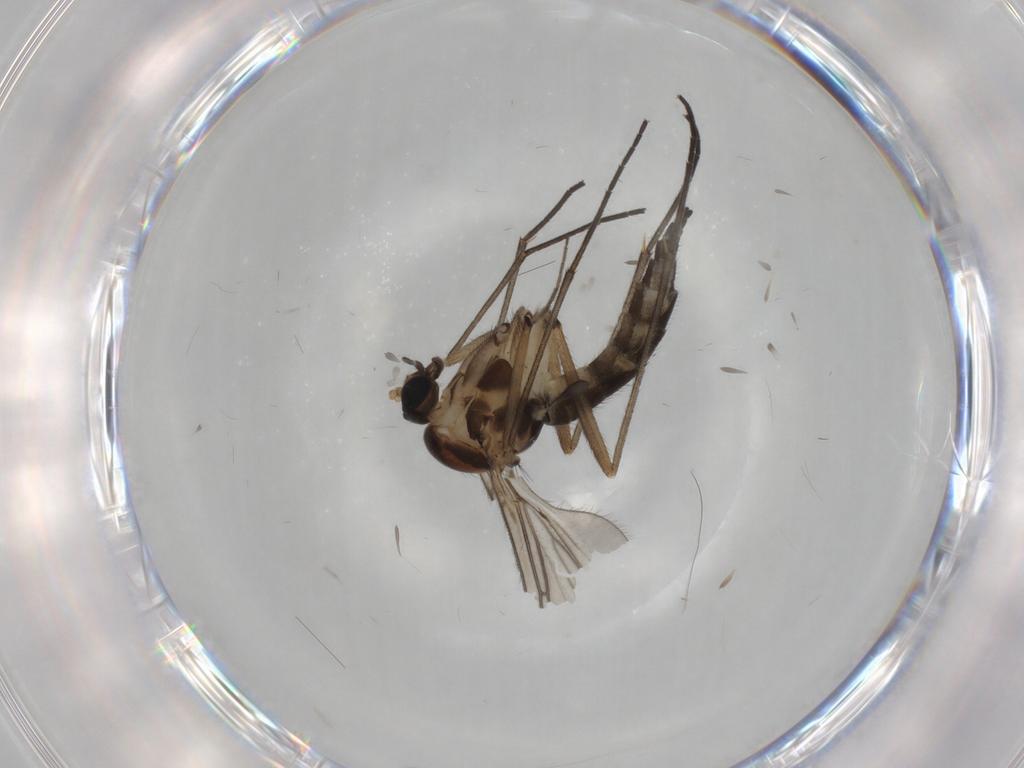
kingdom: Animalia
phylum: Arthropoda
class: Insecta
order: Diptera
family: Sciaridae
